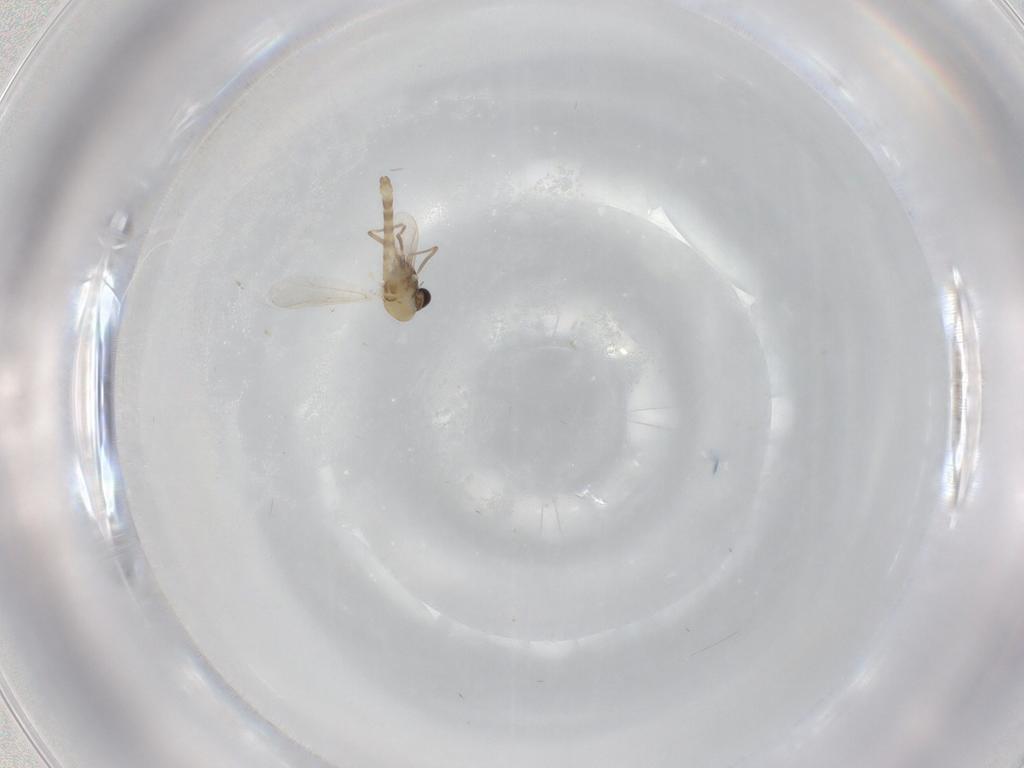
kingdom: Animalia
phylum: Arthropoda
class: Insecta
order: Diptera
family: Chironomidae
